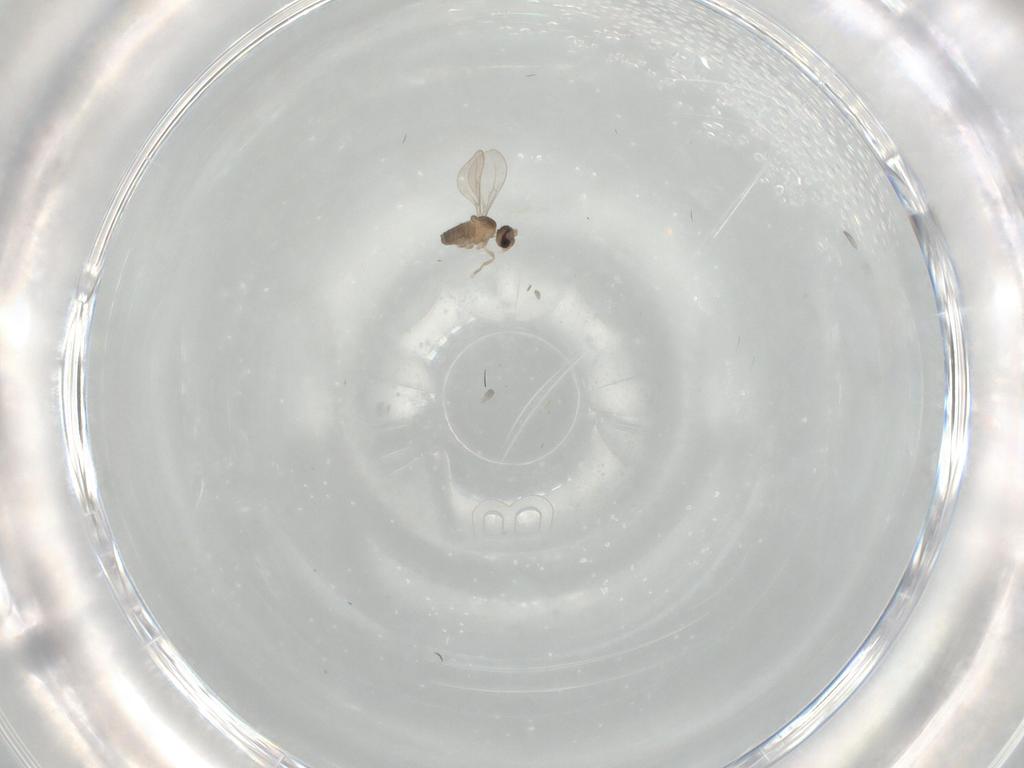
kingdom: Animalia
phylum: Arthropoda
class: Insecta
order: Diptera
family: Cecidomyiidae
